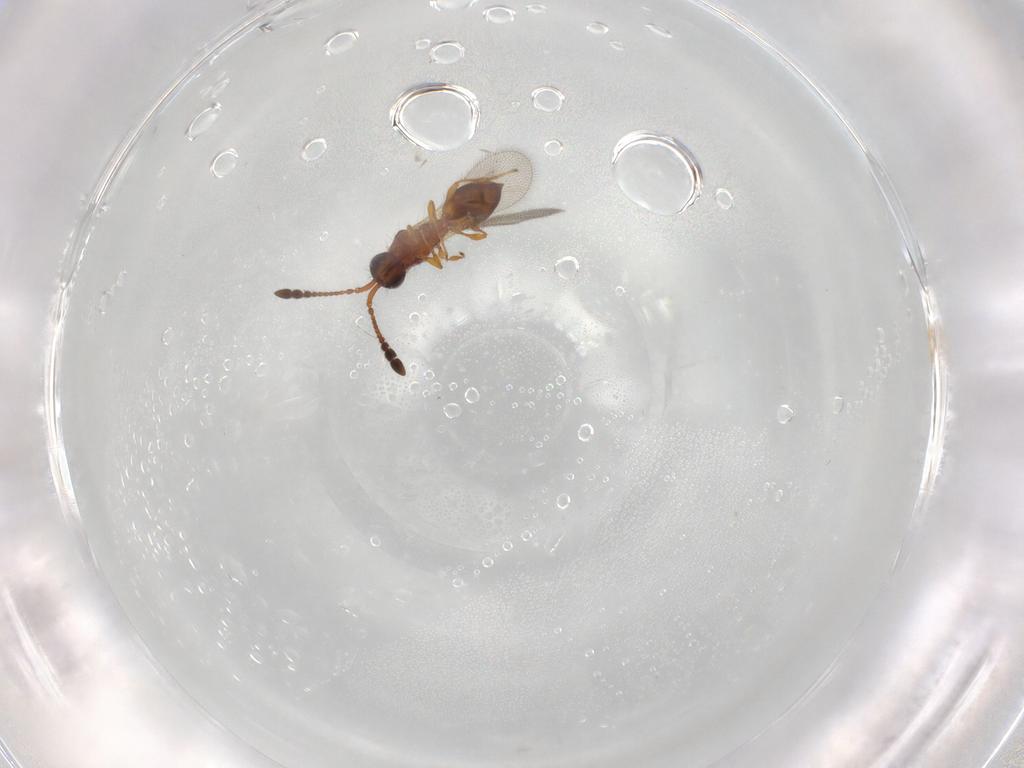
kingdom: Animalia
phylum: Arthropoda
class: Insecta
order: Hymenoptera
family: Diapriidae
